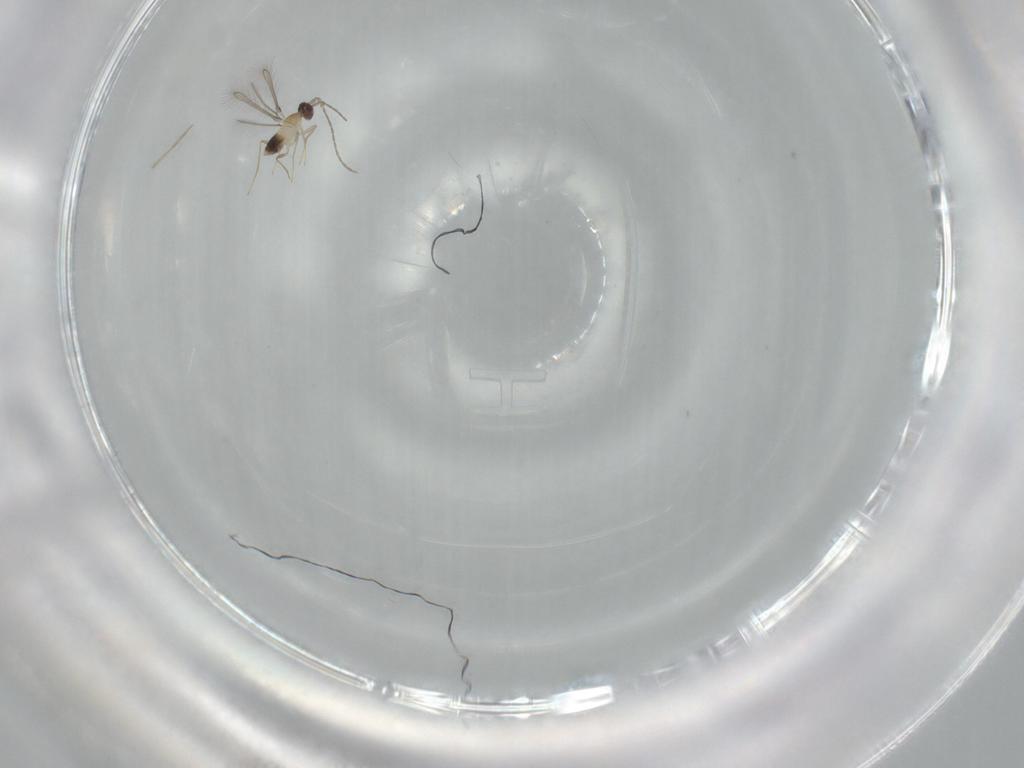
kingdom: Animalia
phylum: Arthropoda
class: Insecta
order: Hymenoptera
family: Mymaridae
